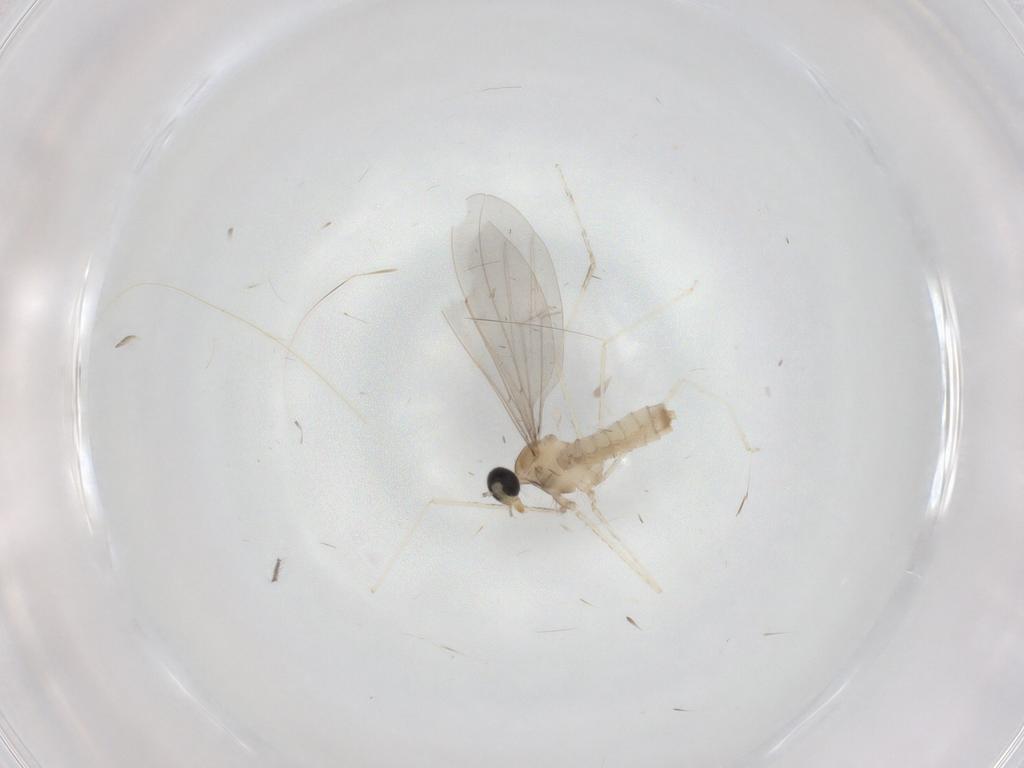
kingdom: Animalia
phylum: Arthropoda
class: Insecta
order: Diptera
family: Cecidomyiidae
